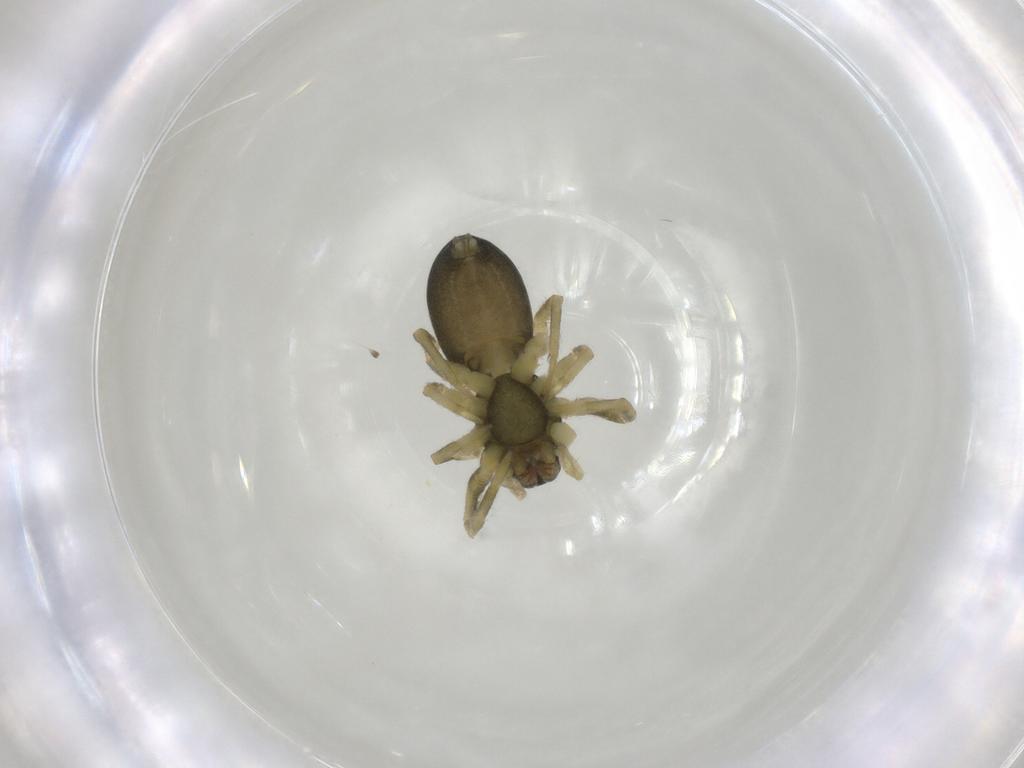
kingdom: Animalia
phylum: Arthropoda
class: Arachnida
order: Araneae
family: Trachelidae
